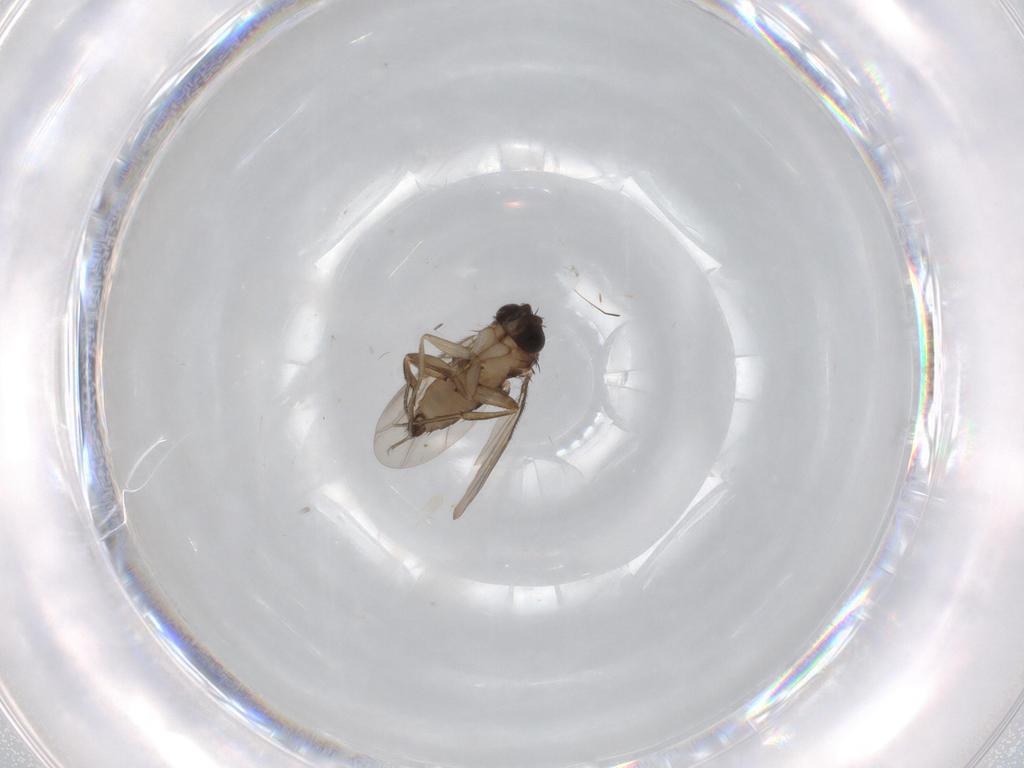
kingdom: Animalia
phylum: Arthropoda
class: Insecta
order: Diptera
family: Phoridae
